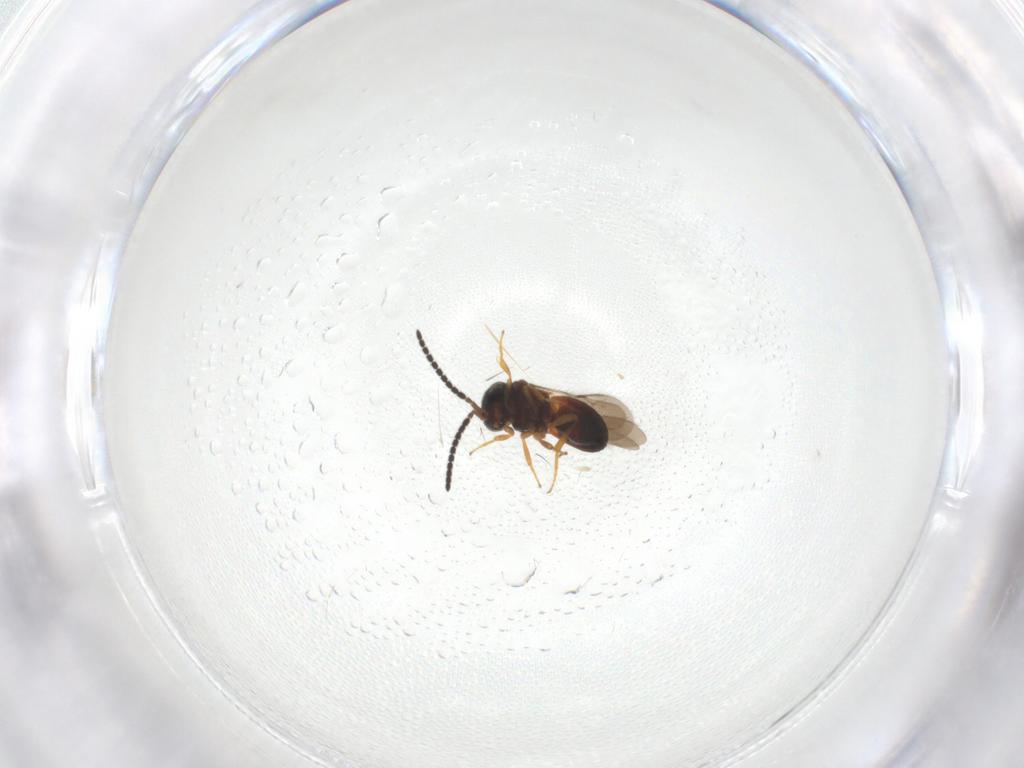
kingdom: Animalia
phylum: Arthropoda
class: Insecta
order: Hymenoptera
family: Scelionidae
